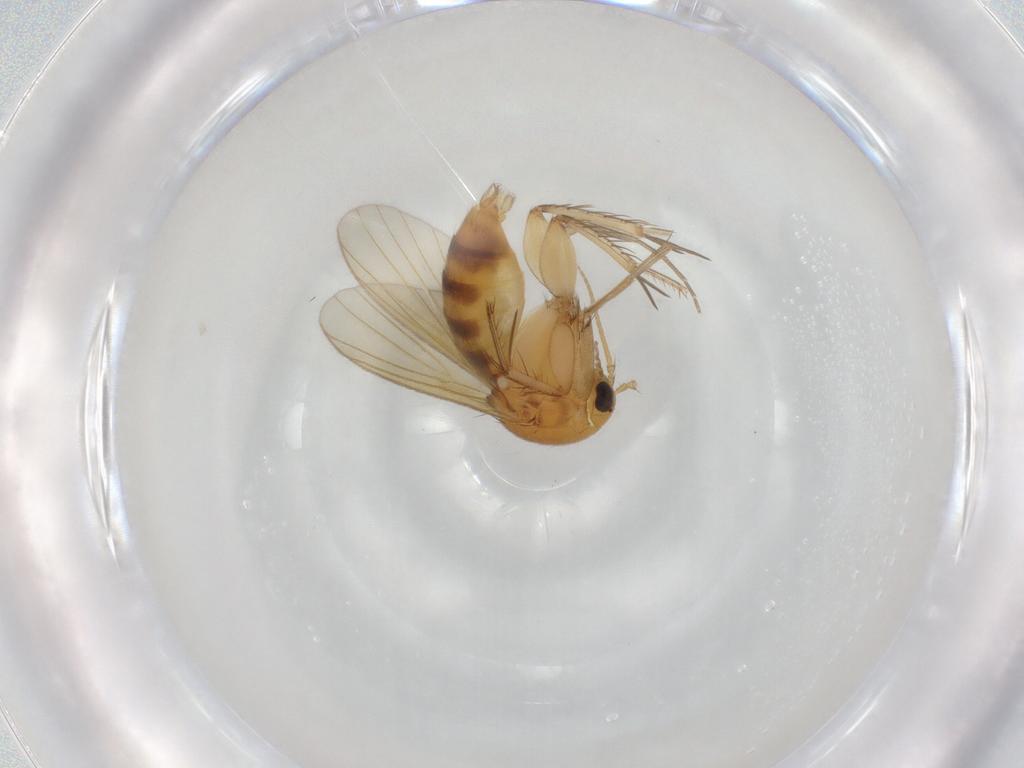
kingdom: Animalia
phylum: Arthropoda
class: Insecta
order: Diptera
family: Mycetophilidae
